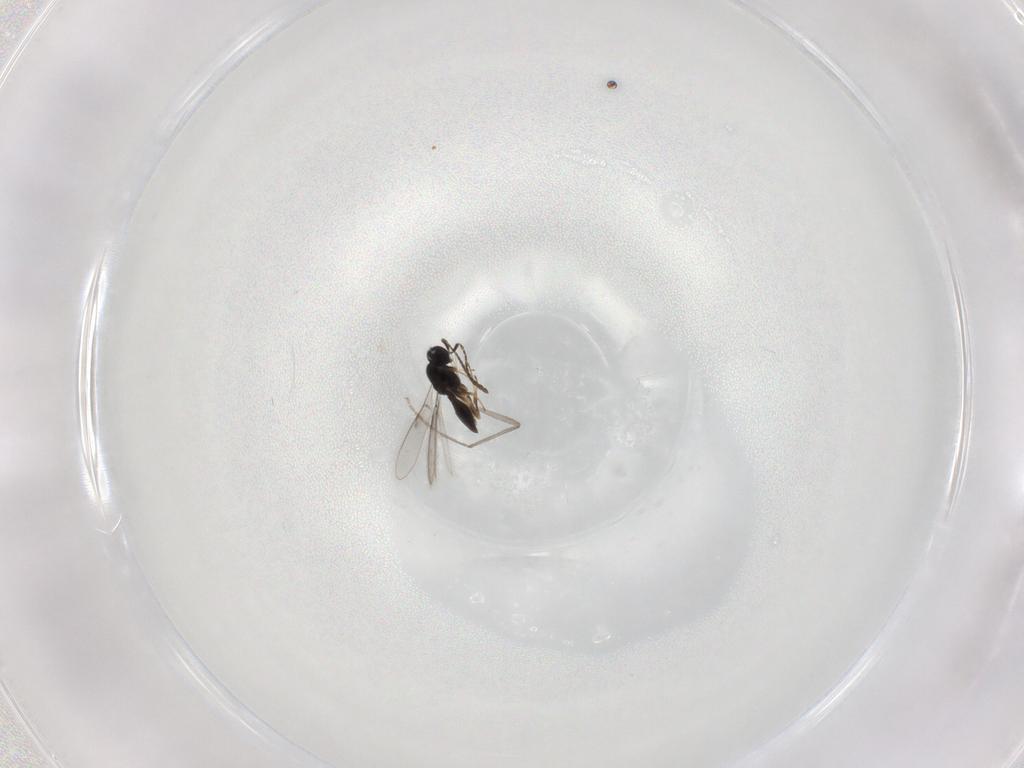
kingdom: Animalia
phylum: Arthropoda
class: Insecta
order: Hymenoptera
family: Scelionidae
